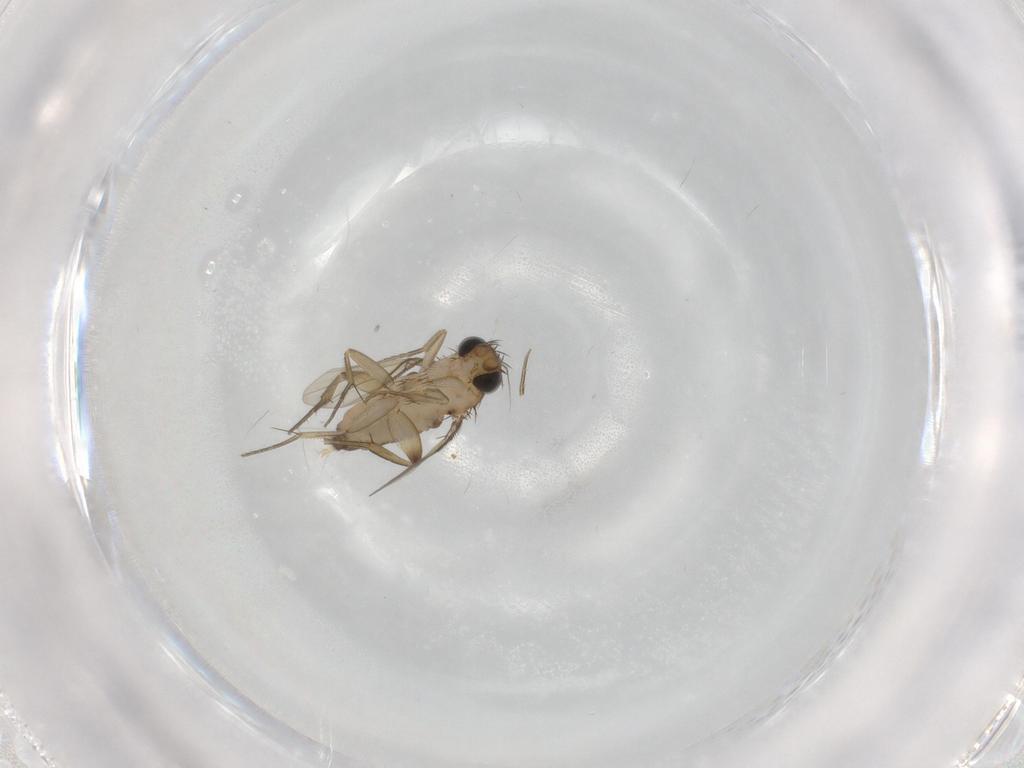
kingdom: Animalia
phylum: Arthropoda
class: Insecta
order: Diptera
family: Phoridae
